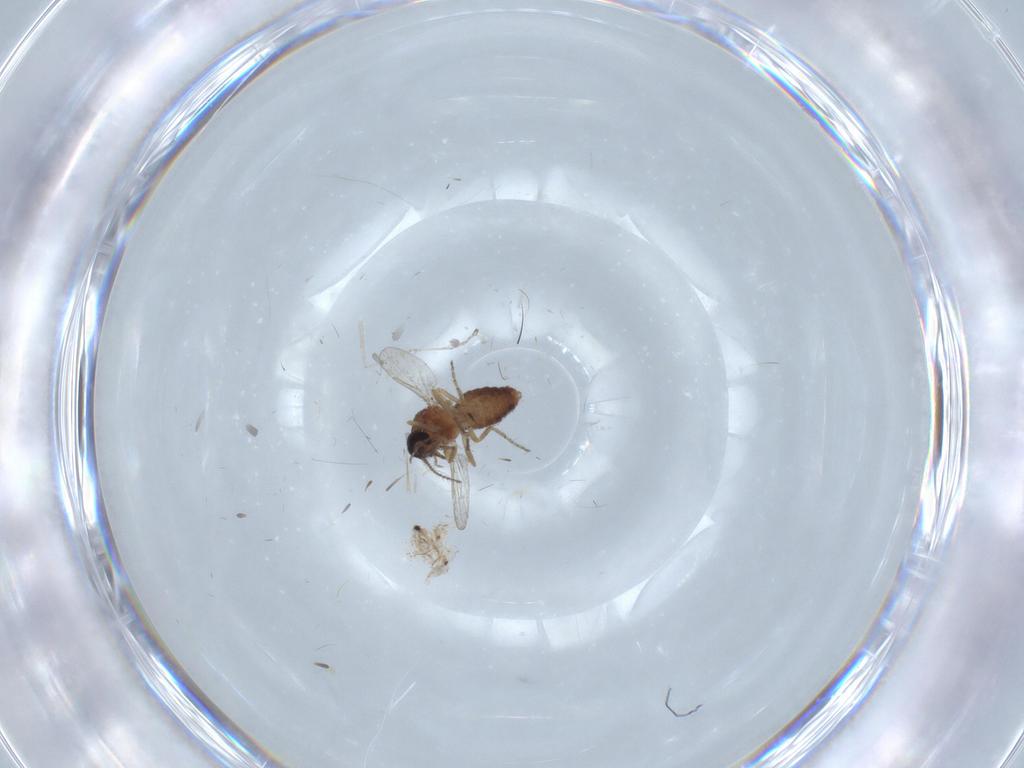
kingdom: Animalia
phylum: Arthropoda
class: Insecta
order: Diptera
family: Ceratopogonidae
